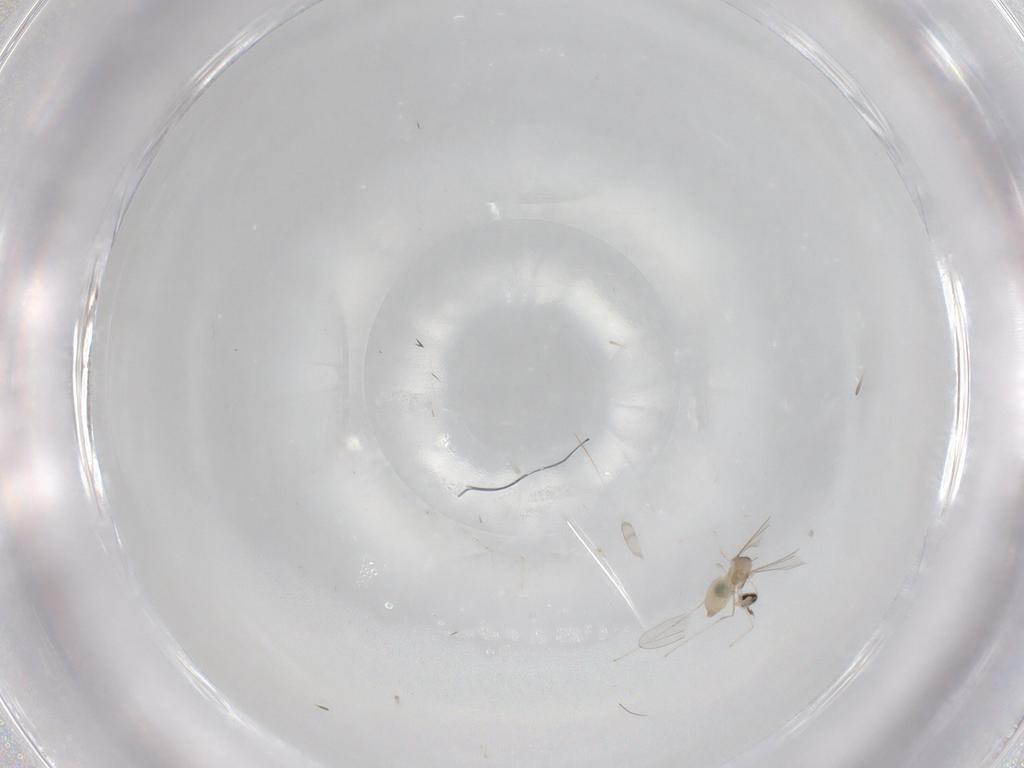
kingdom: Animalia
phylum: Arthropoda
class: Insecta
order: Diptera
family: Cecidomyiidae
